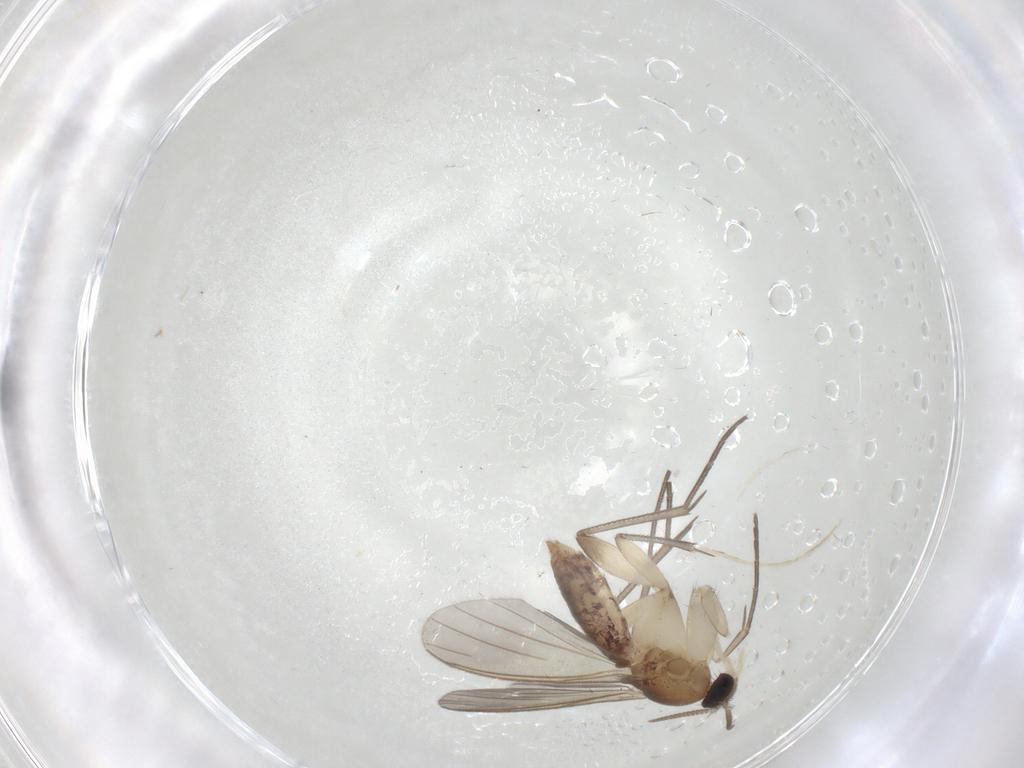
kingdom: Animalia
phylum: Arthropoda
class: Insecta
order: Diptera
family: Mycetophilidae
